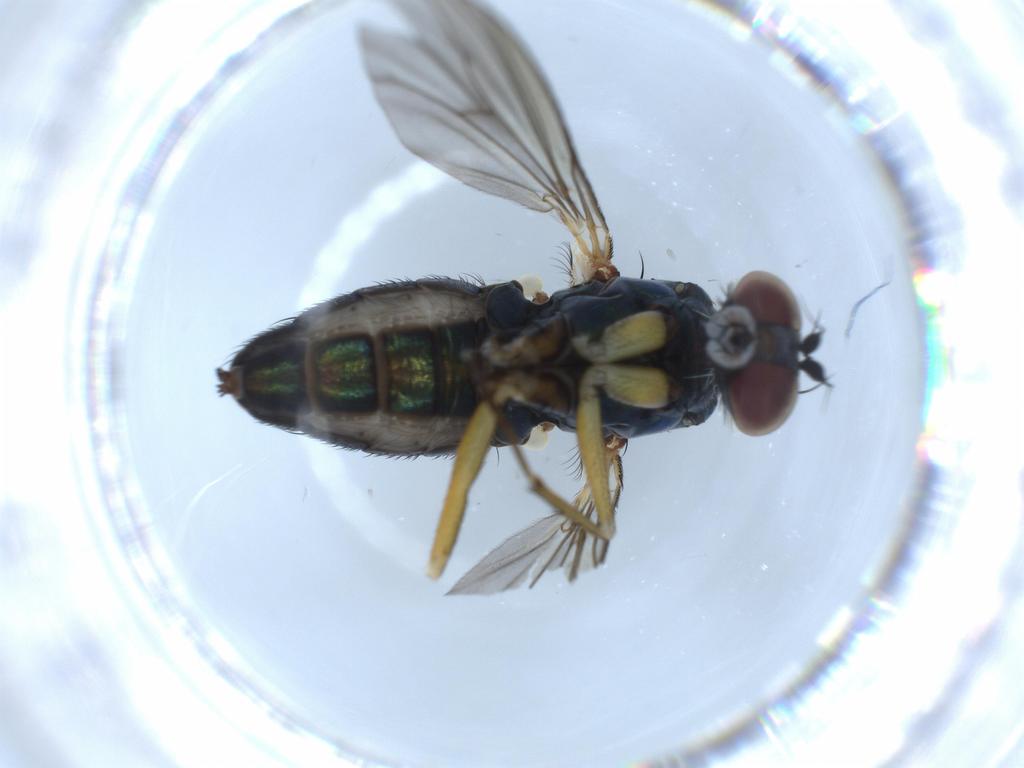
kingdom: Animalia
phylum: Arthropoda
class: Insecta
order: Diptera
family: Dolichopodidae
